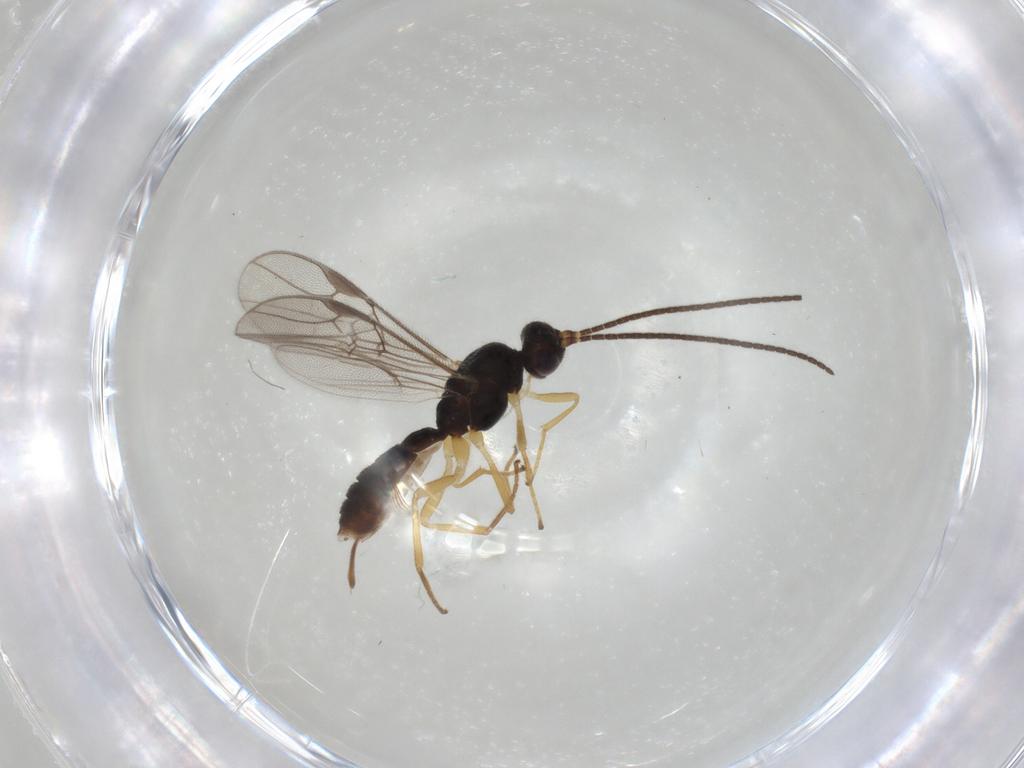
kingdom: Animalia
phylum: Arthropoda
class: Insecta
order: Hymenoptera
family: Braconidae
